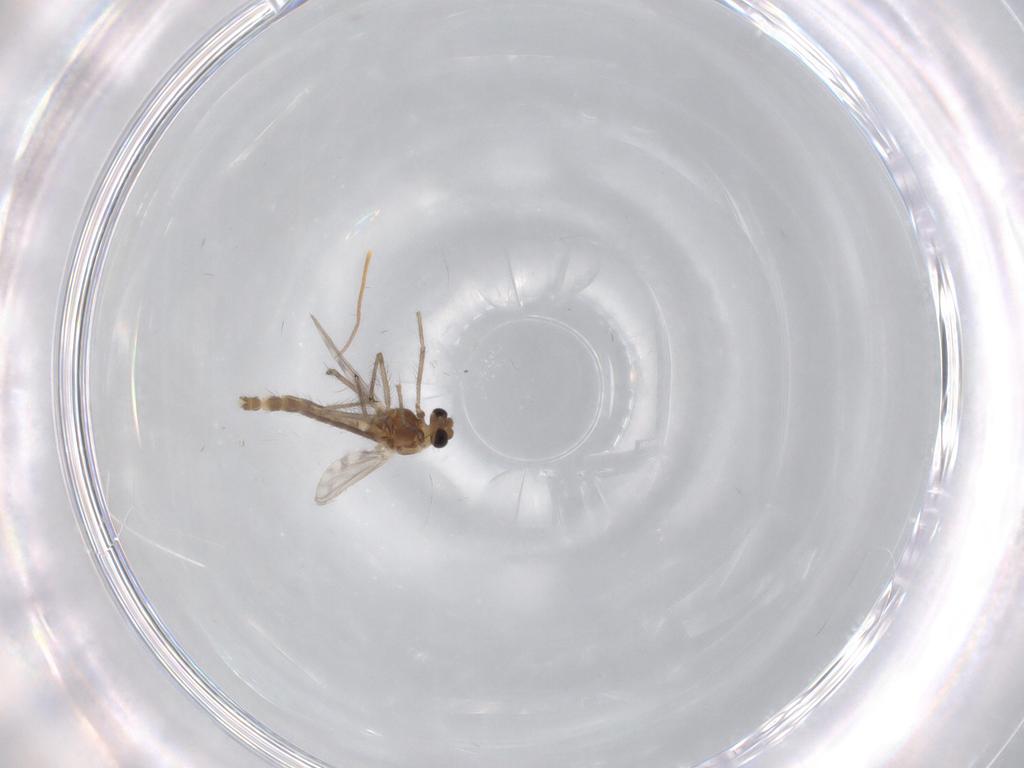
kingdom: Animalia
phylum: Arthropoda
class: Insecta
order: Diptera
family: Chironomidae
